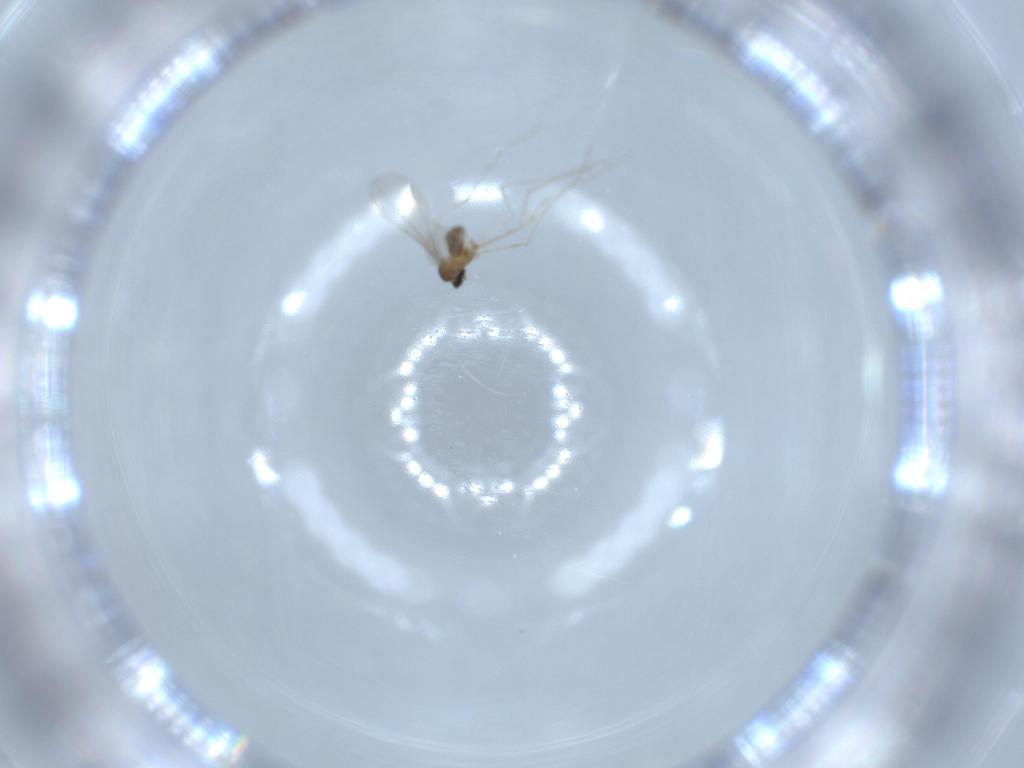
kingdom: Animalia
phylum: Arthropoda
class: Insecta
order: Diptera
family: Cecidomyiidae
